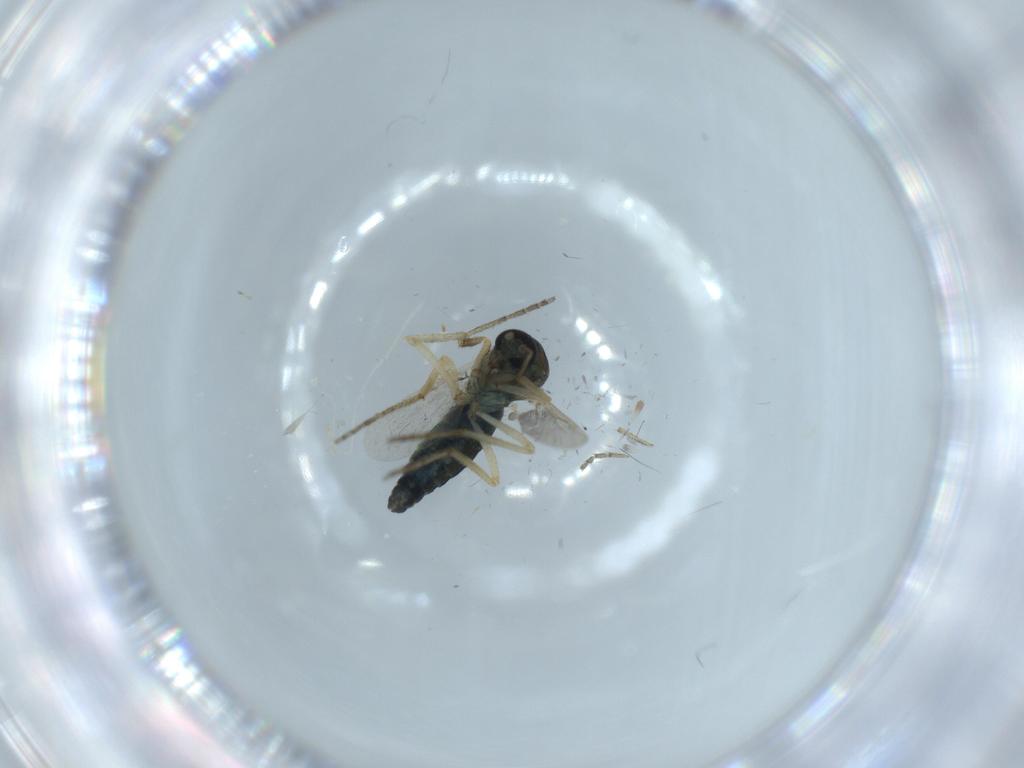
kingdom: Animalia
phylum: Arthropoda
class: Insecta
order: Diptera
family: Ceratopogonidae
